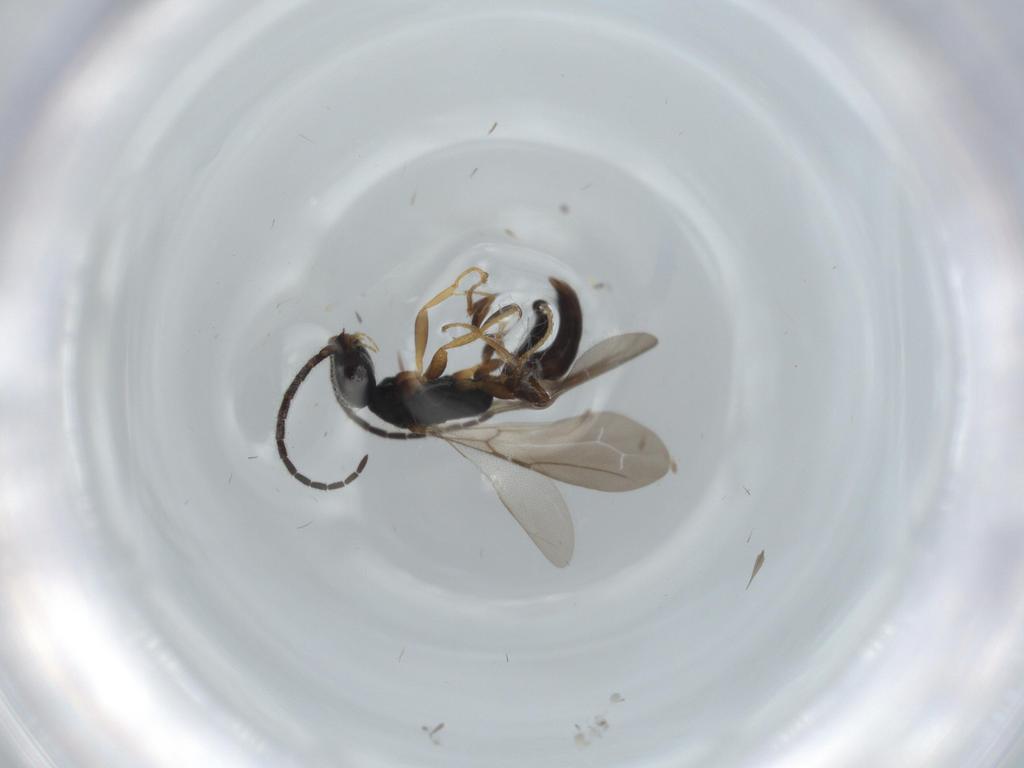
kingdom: Animalia
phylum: Arthropoda
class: Insecta
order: Hymenoptera
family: Bethylidae
